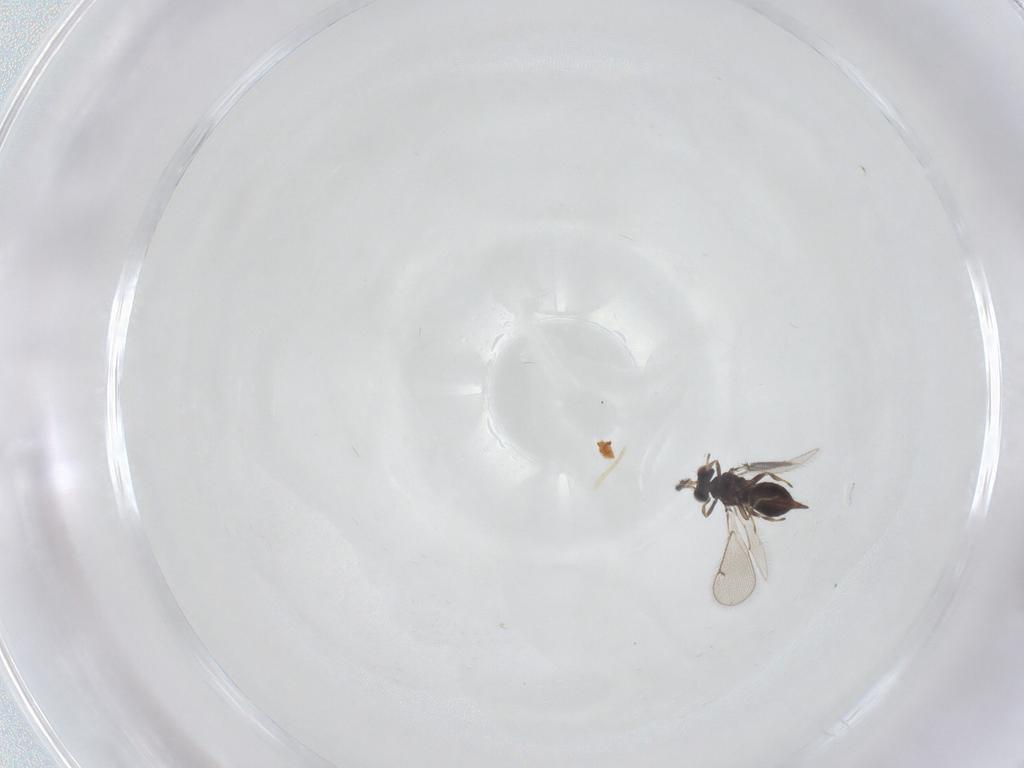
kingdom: Animalia
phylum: Arthropoda
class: Insecta
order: Hymenoptera
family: Eulophidae
